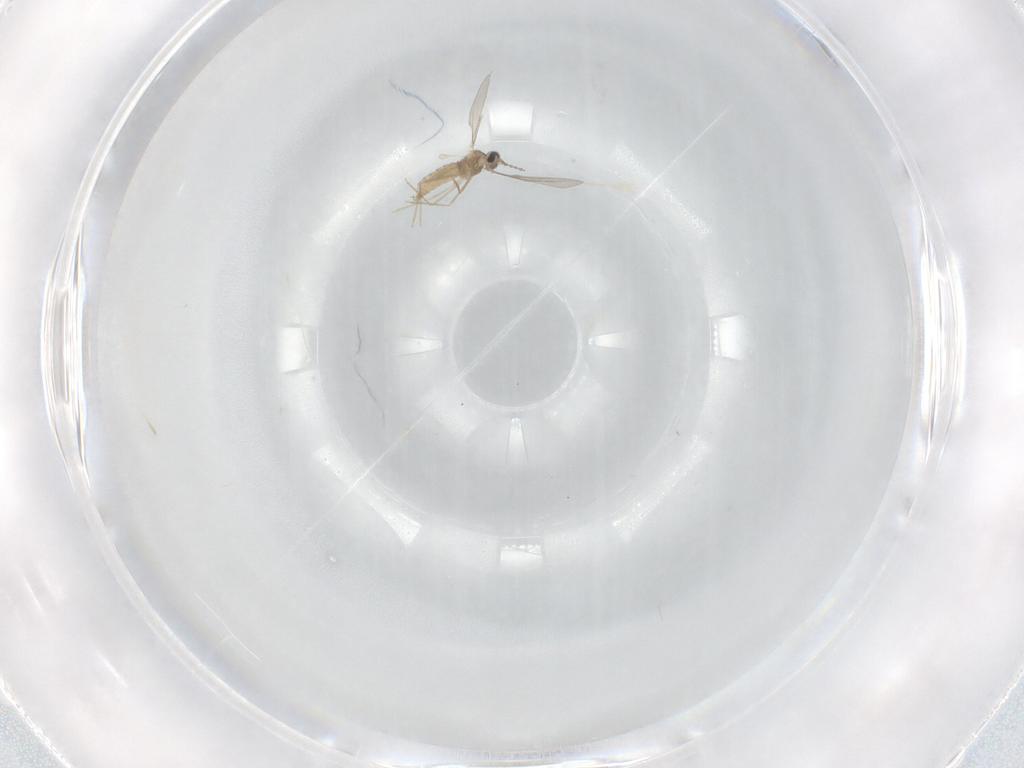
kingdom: Animalia
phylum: Arthropoda
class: Insecta
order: Diptera
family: Cecidomyiidae
